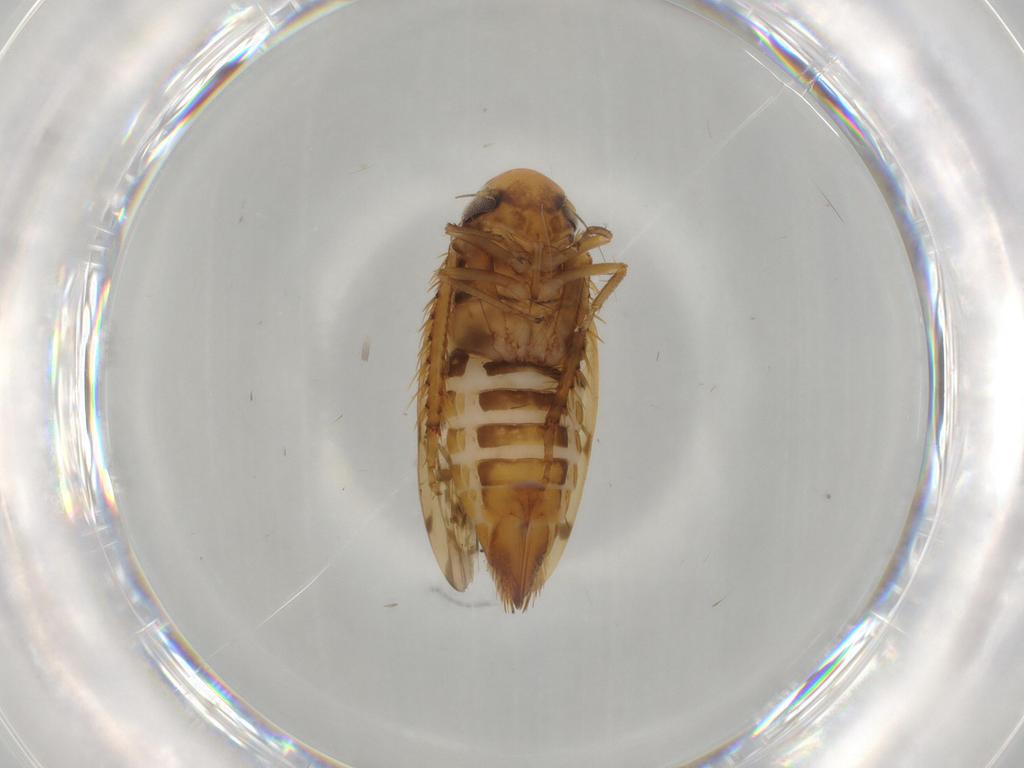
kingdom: Animalia
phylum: Arthropoda
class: Insecta
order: Hemiptera
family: Cicadellidae
